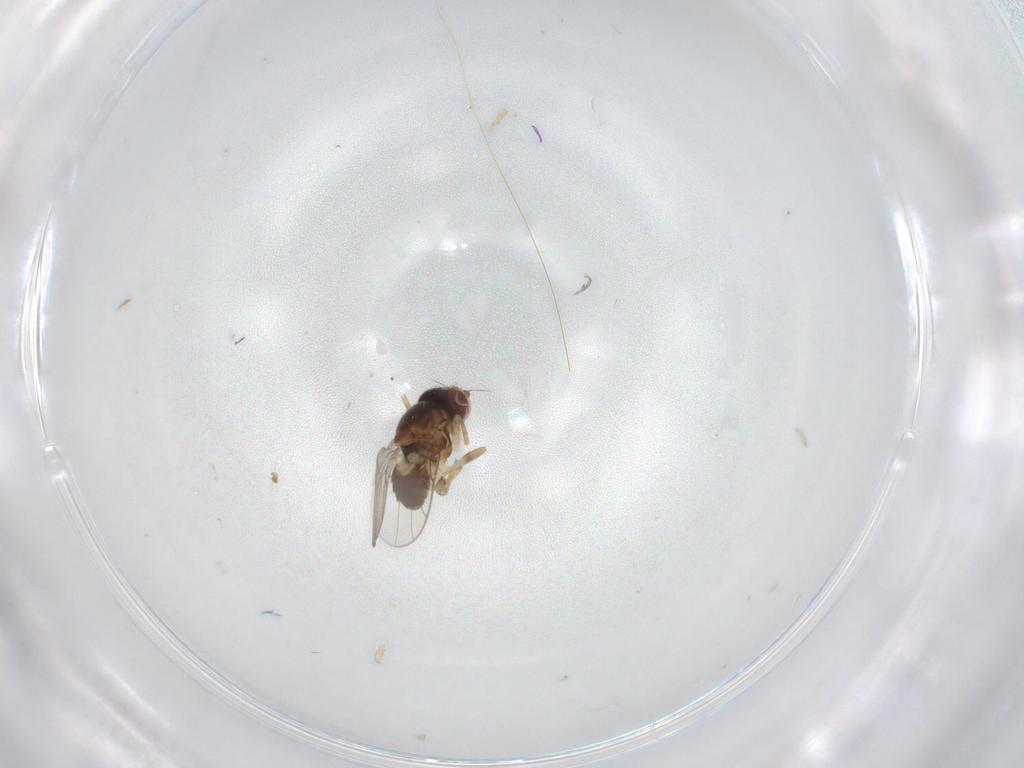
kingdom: Animalia
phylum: Arthropoda
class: Insecta
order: Diptera
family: Chloropidae
